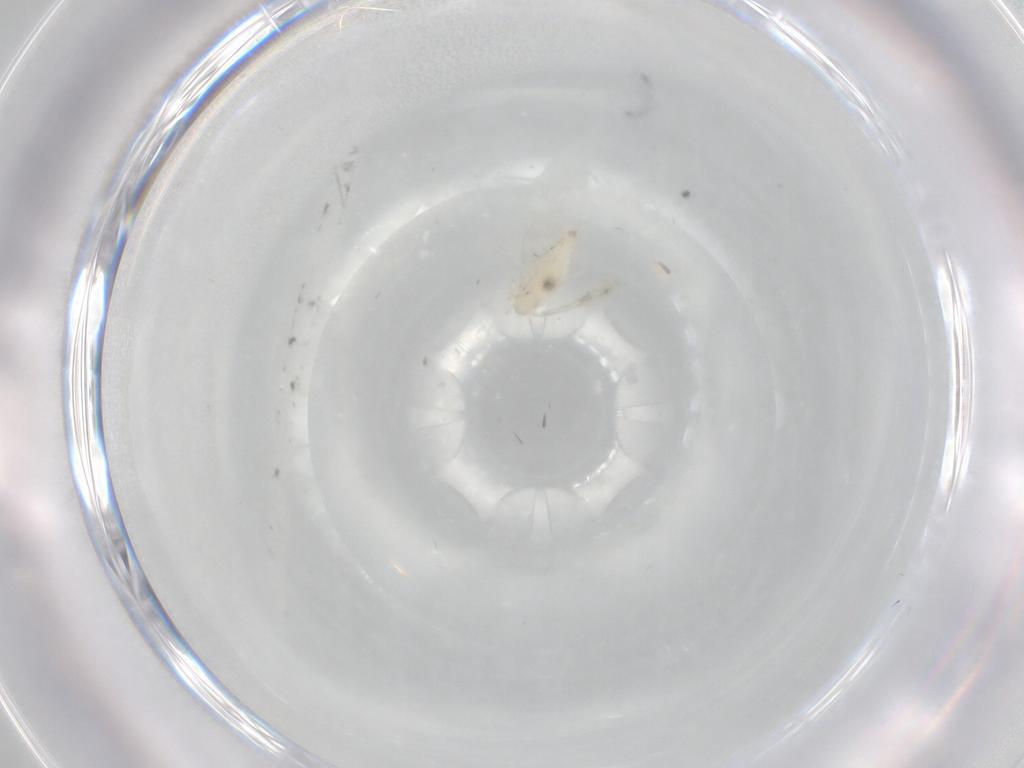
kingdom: Animalia
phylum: Arthropoda
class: Insecta
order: Diptera
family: Cecidomyiidae
